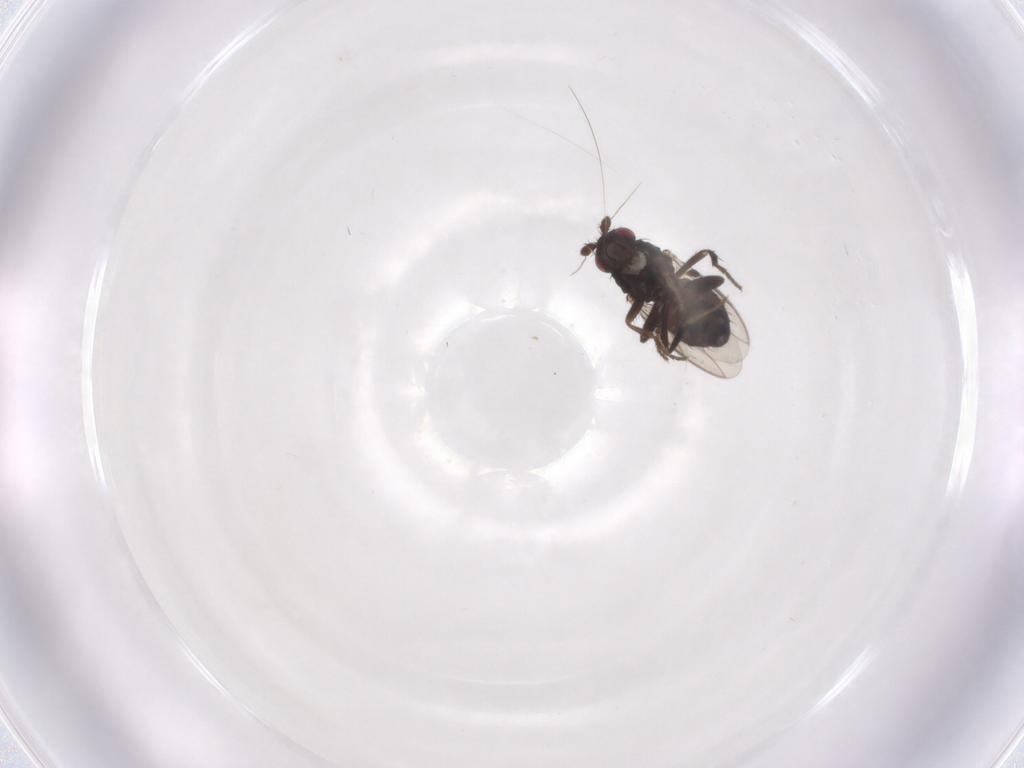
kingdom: Animalia
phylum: Arthropoda
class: Insecta
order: Diptera
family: Sphaeroceridae
